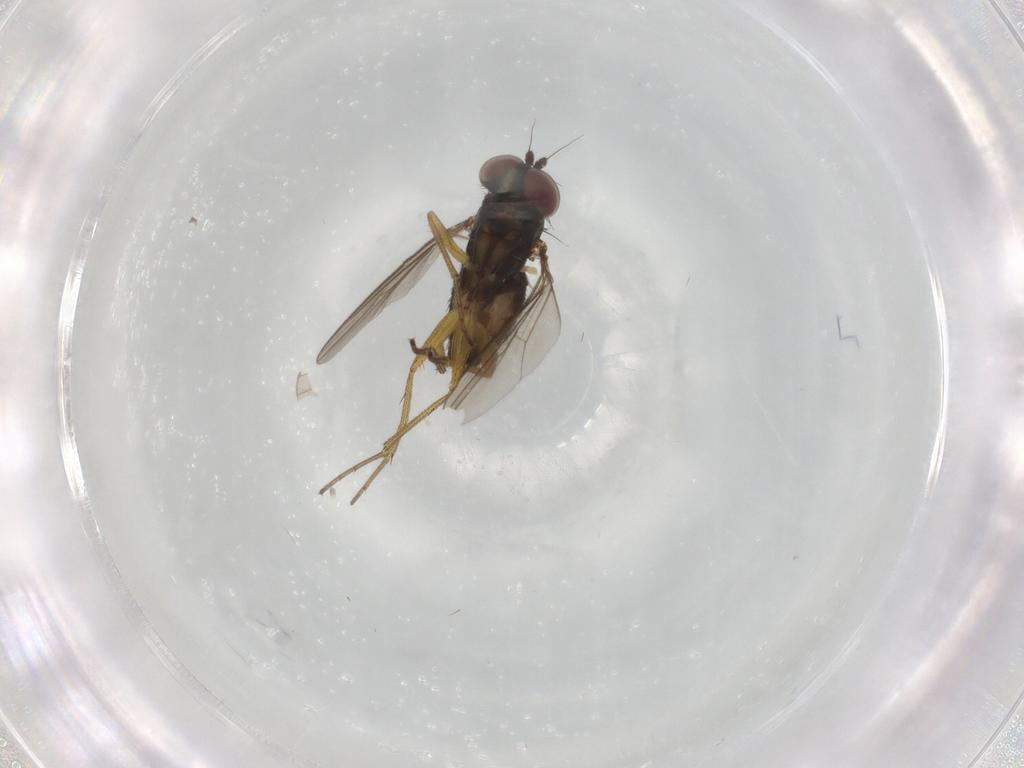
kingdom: Animalia
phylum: Arthropoda
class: Insecta
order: Diptera
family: Dolichopodidae
